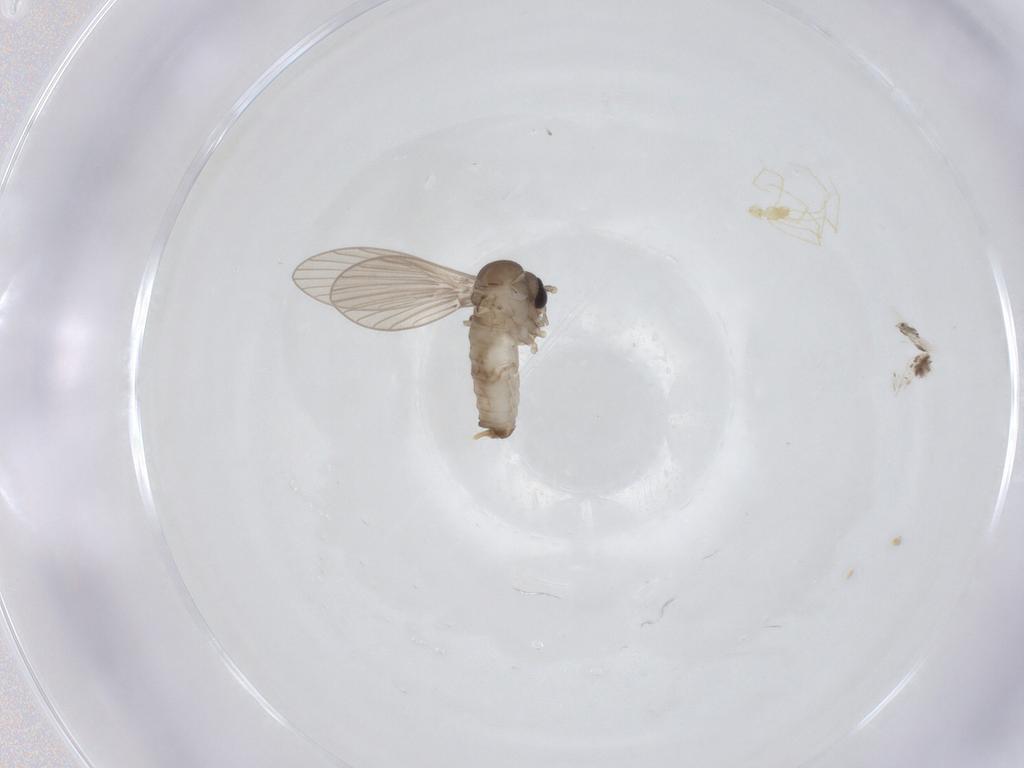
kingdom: Animalia
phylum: Arthropoda
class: Insecta
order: Diptera
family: Psychodidae
